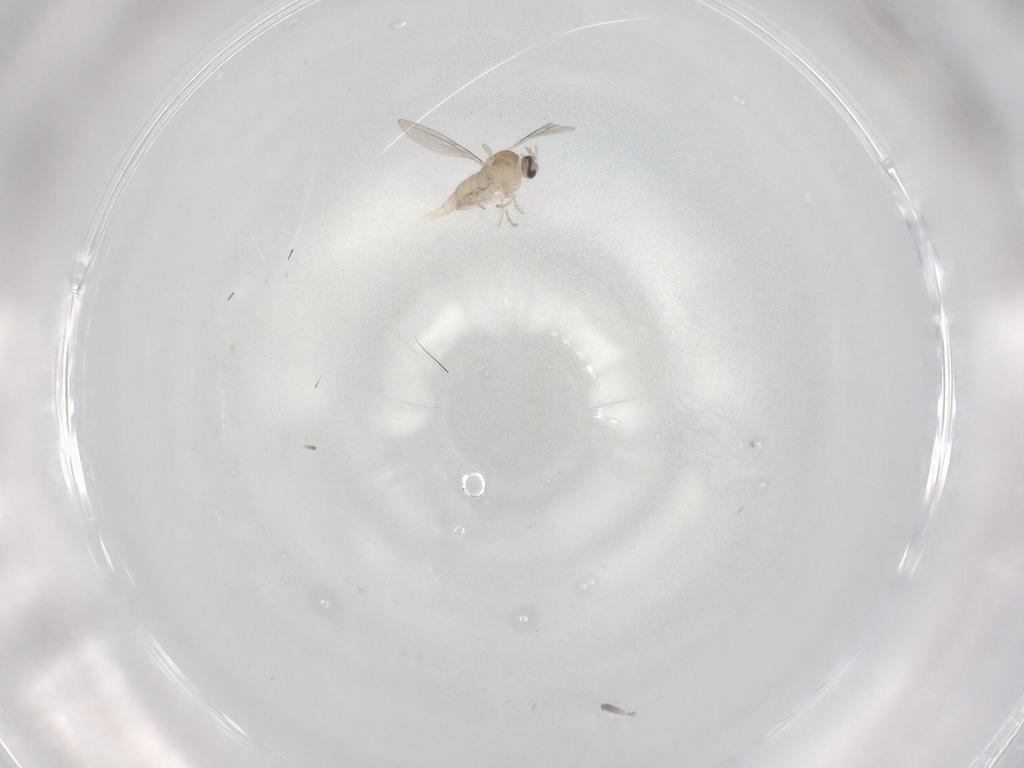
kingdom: Animalia
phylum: Arthropoda
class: Insecta
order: Diptera
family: Cecidomyiidae
